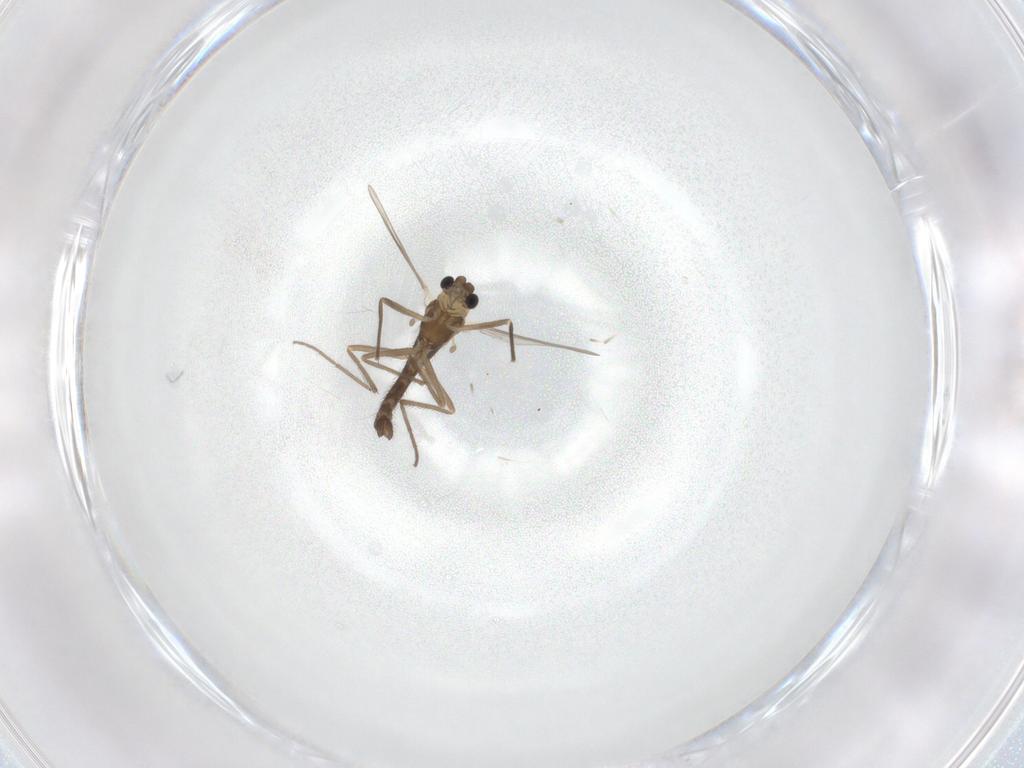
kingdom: Animalia
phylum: Arthropoda
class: Insecta
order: Diptera
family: Chironomidae
